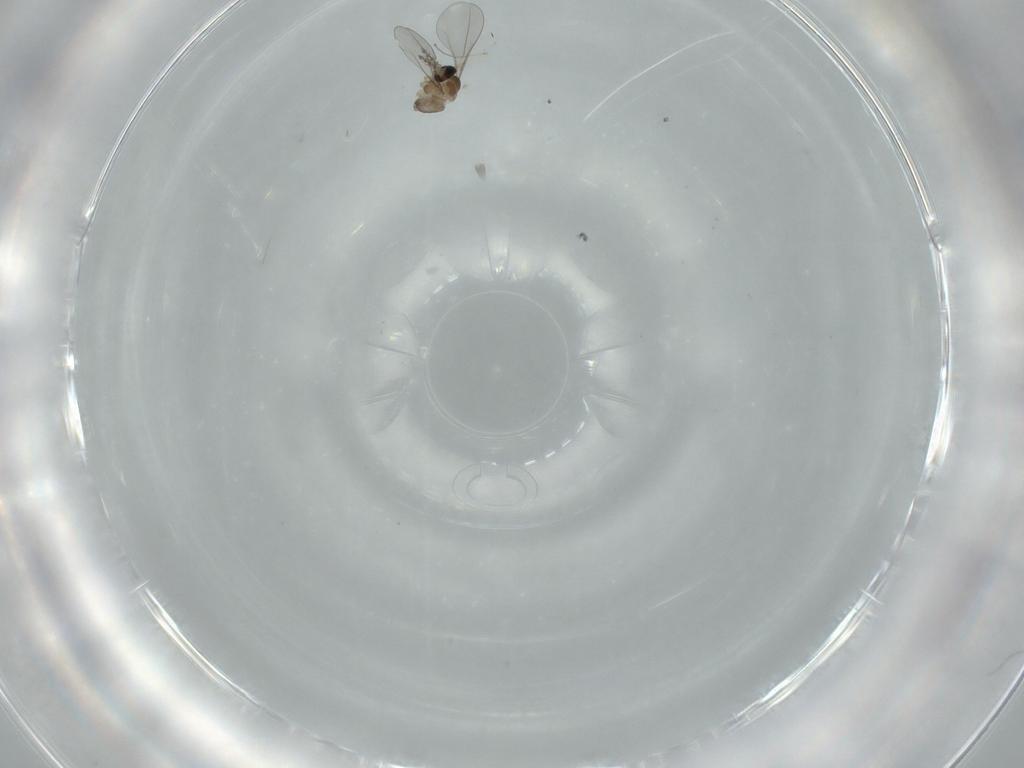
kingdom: Animalia
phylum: Arthropoda
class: Insecta
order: Diptera
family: Cecidomyiidae
